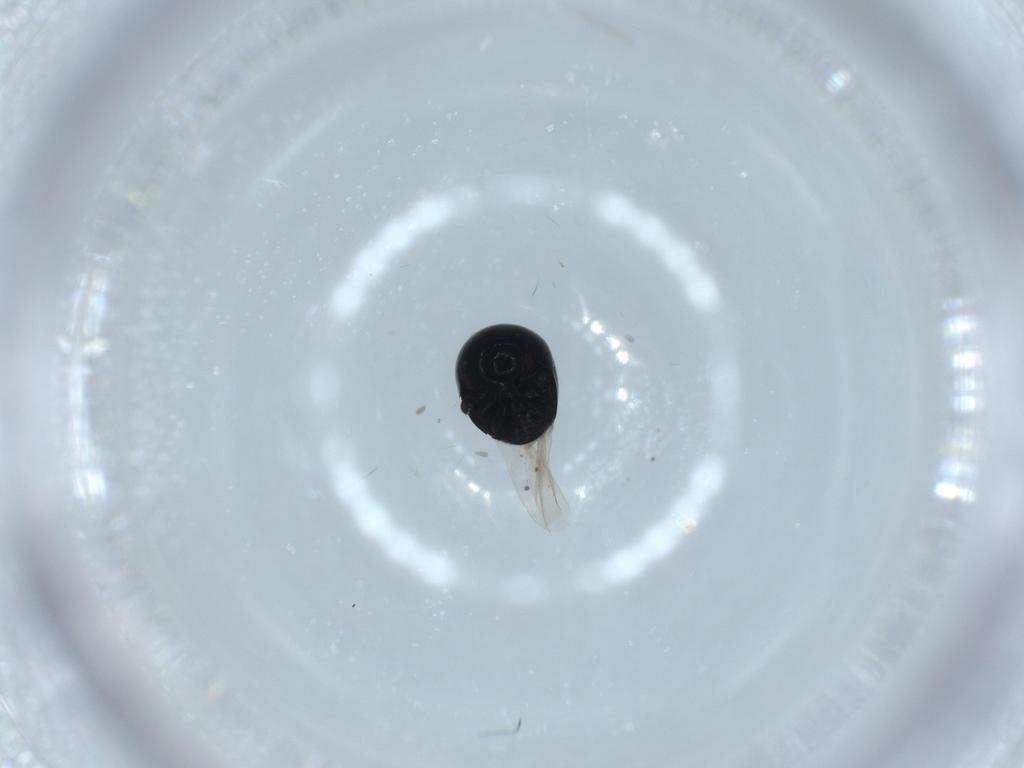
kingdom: Animalia
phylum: Arthropoda
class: Insecta
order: Coleoptera
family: Cybocephalidae
